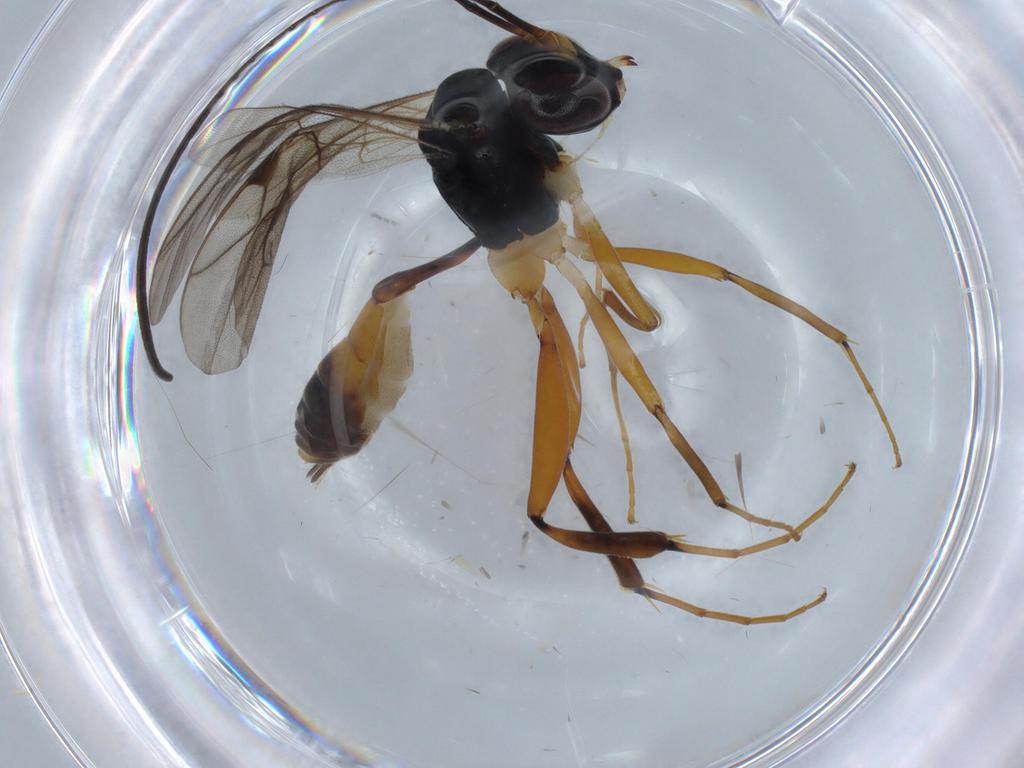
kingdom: Animalia
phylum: Arthropoda
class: Insecta
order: Hymenoptera
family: Ichneumonidae
